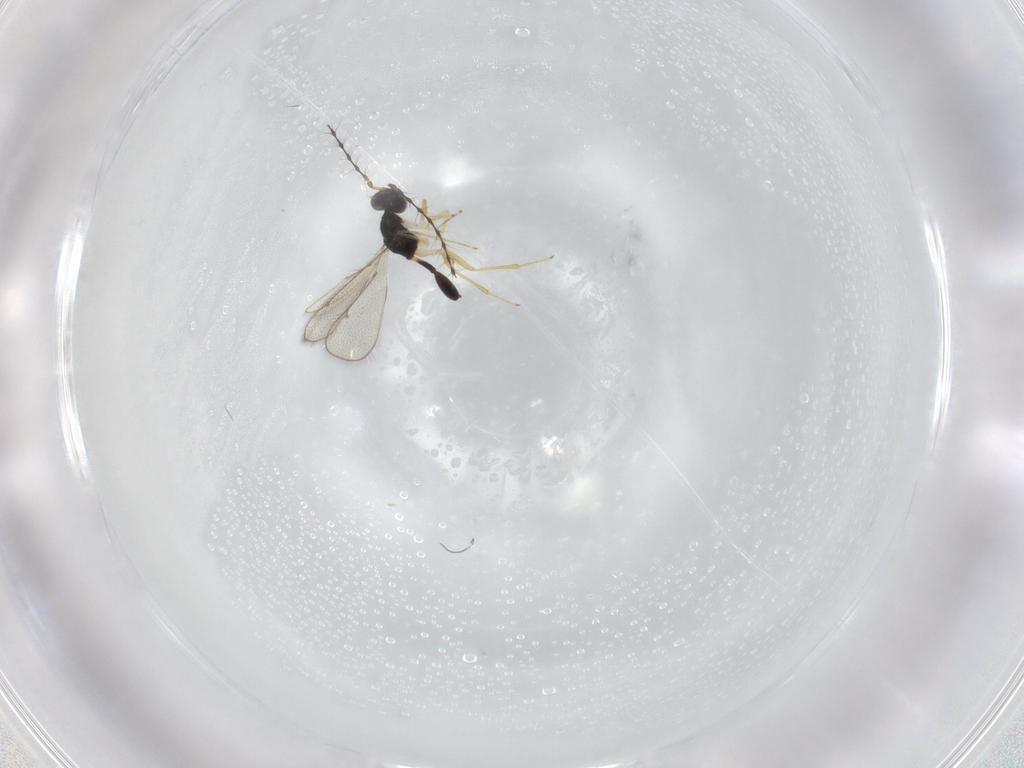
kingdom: Animalia
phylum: Arthropoda
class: Insecta
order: Hymenoptera
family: Diparidae
